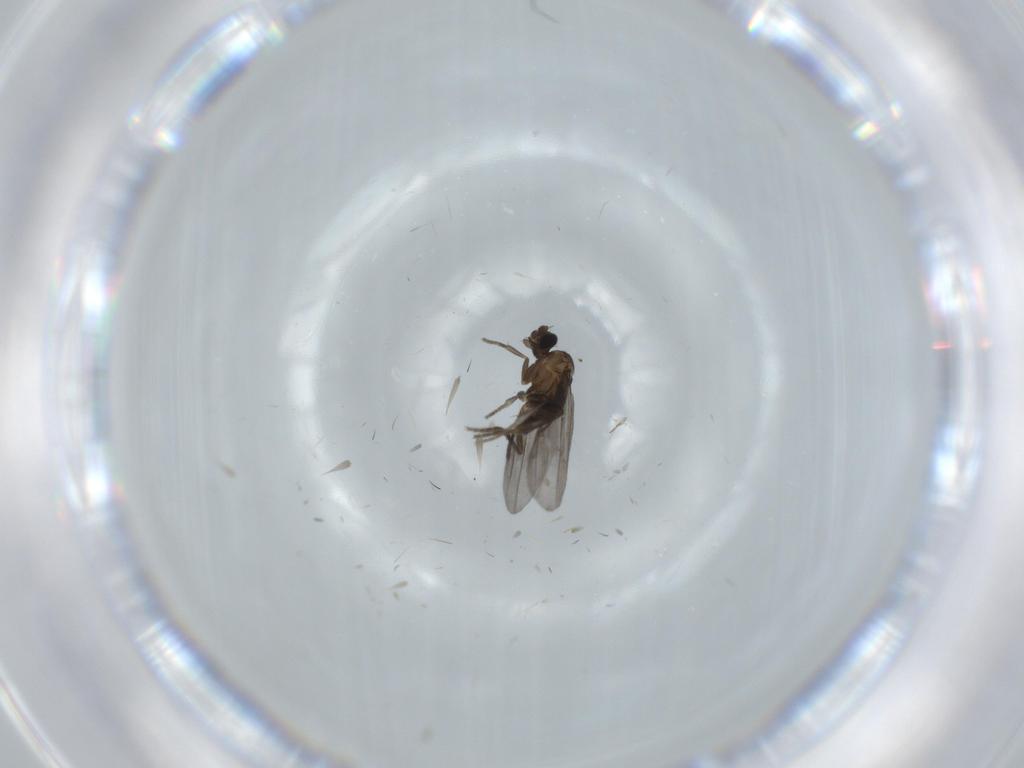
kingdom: Animalia
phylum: Arthropoda
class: Insecta
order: Diptera
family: Phoridae
